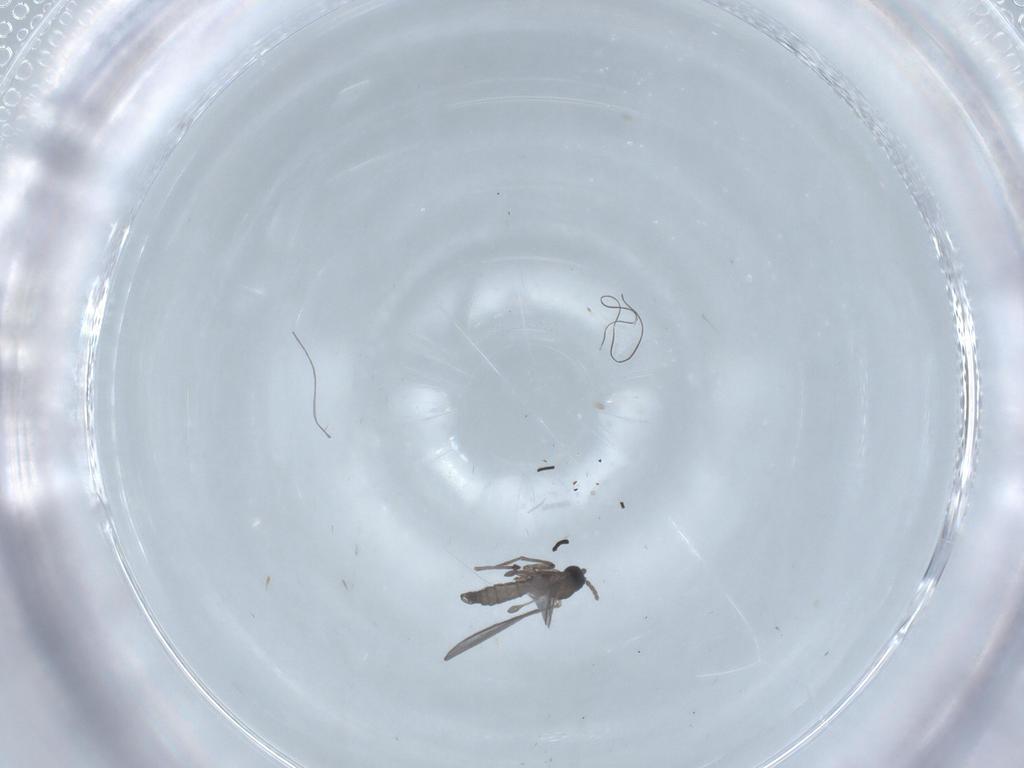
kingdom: Animalia
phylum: Arthropoda
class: Insecta
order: Diptera
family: Sciaridae
